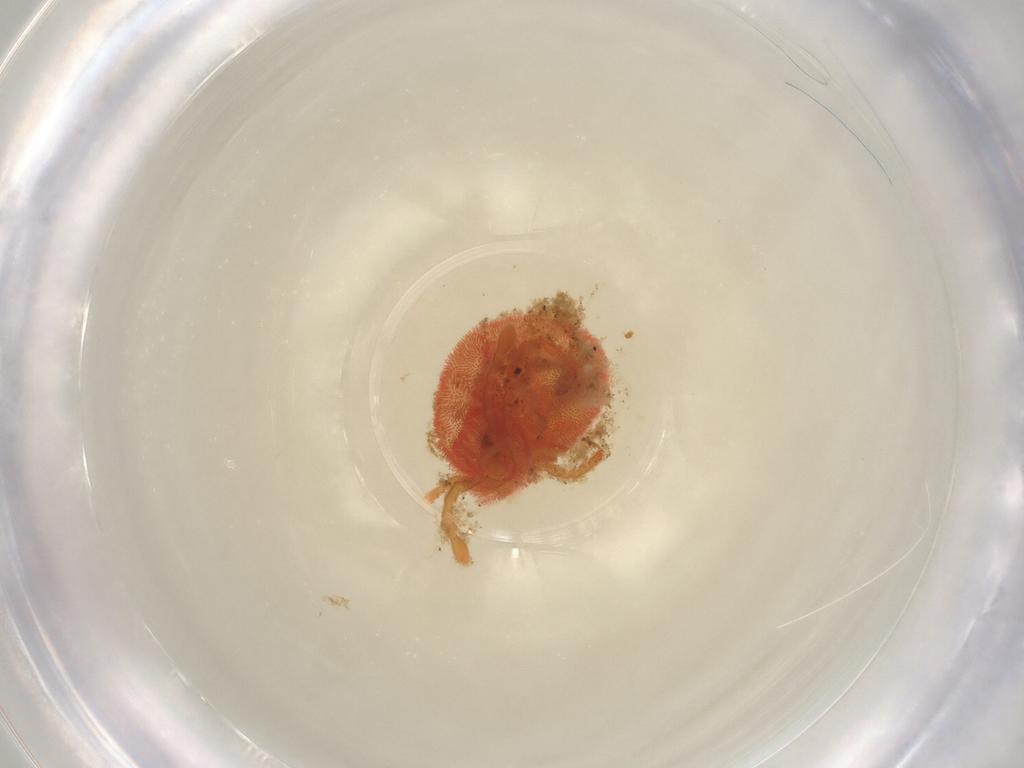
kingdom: Animalia
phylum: Arthropoda
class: Arachnida
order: Trombidiformes
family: Microtrombidiidae
